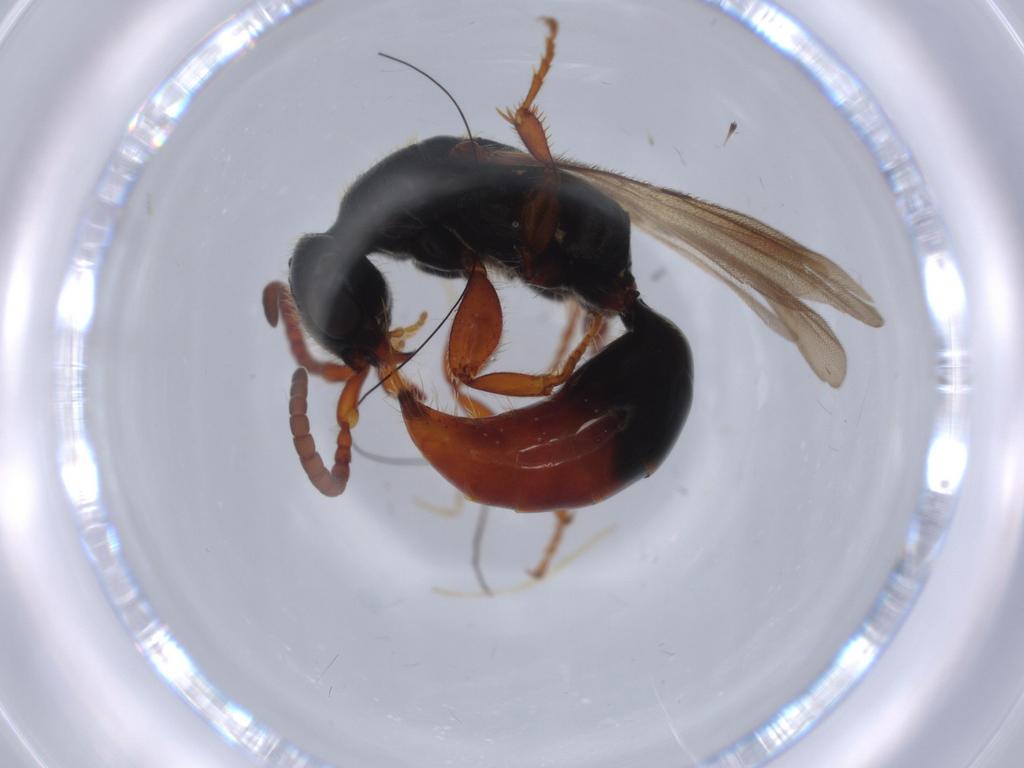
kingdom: Animalia
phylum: Arthropoda
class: Insecta
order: Hymenoptera
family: Bethylidae
